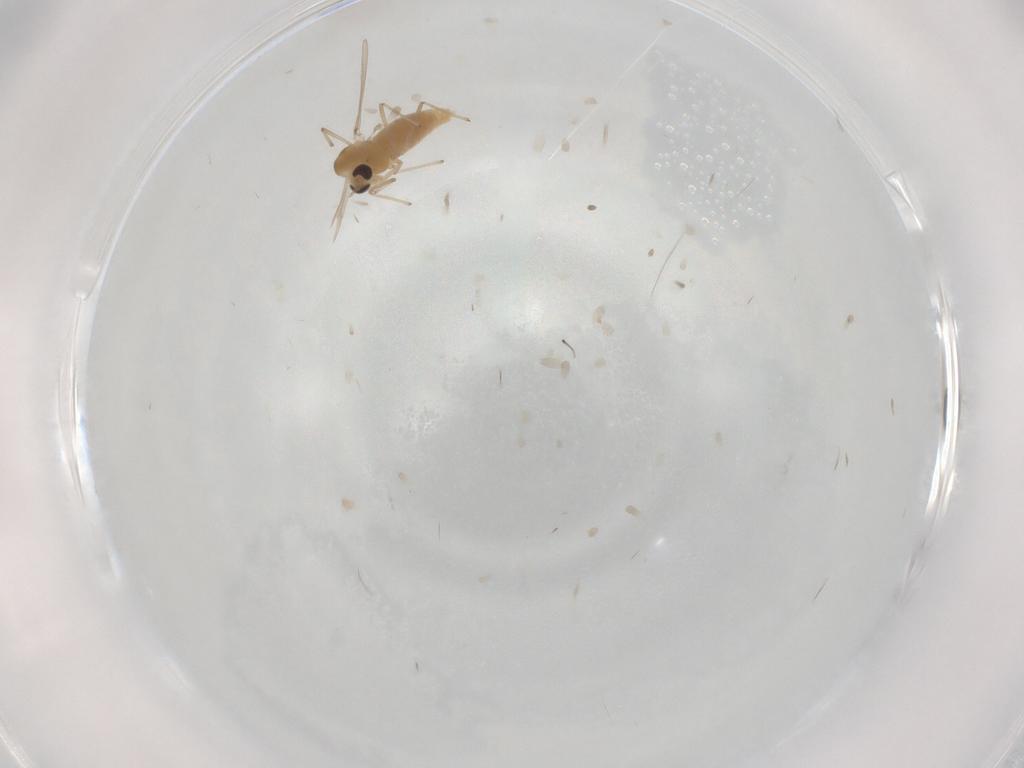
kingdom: Animalia
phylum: Arthropoda
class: Insecta
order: Diptera
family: Chironomidae
